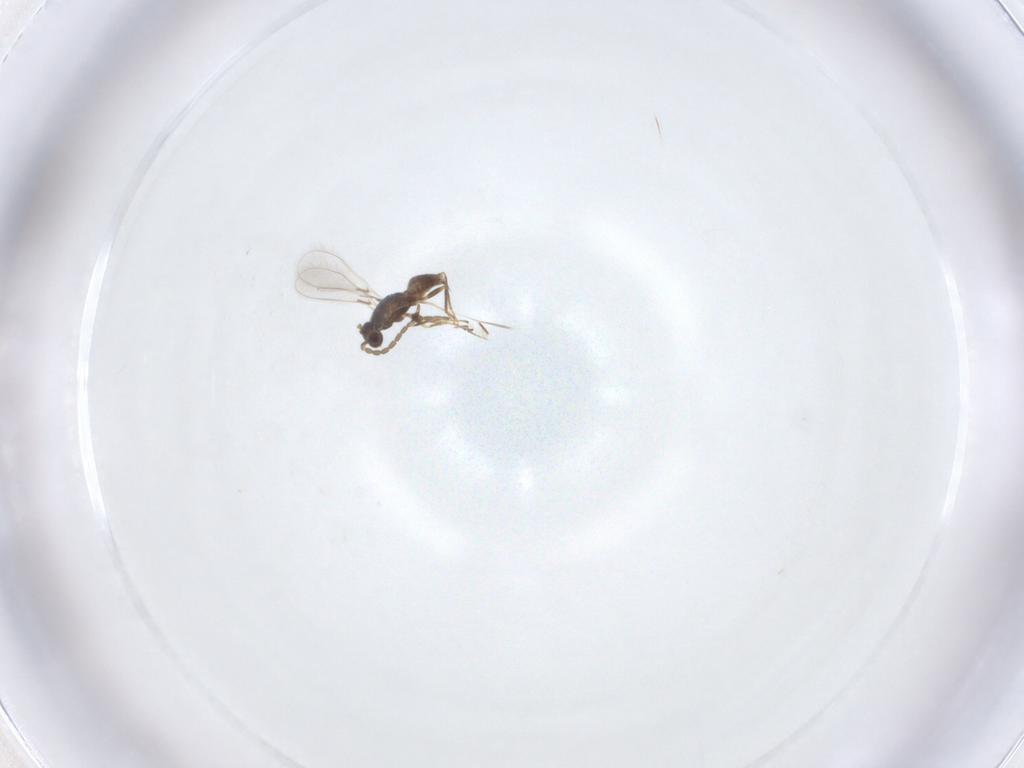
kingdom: Animalia
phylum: Arthropoda
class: Insecta
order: Hymenoptera
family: Mymaridae
